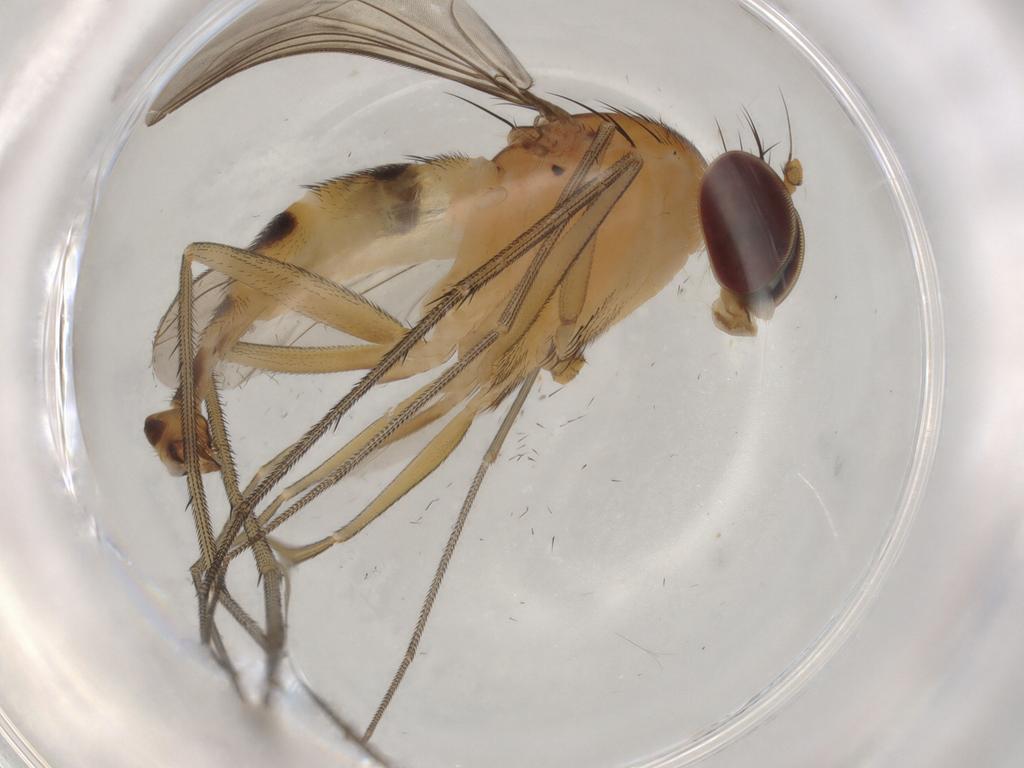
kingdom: Animalia
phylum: Arthropoda
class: Insecta
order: Diptera
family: Dolichopodidae
